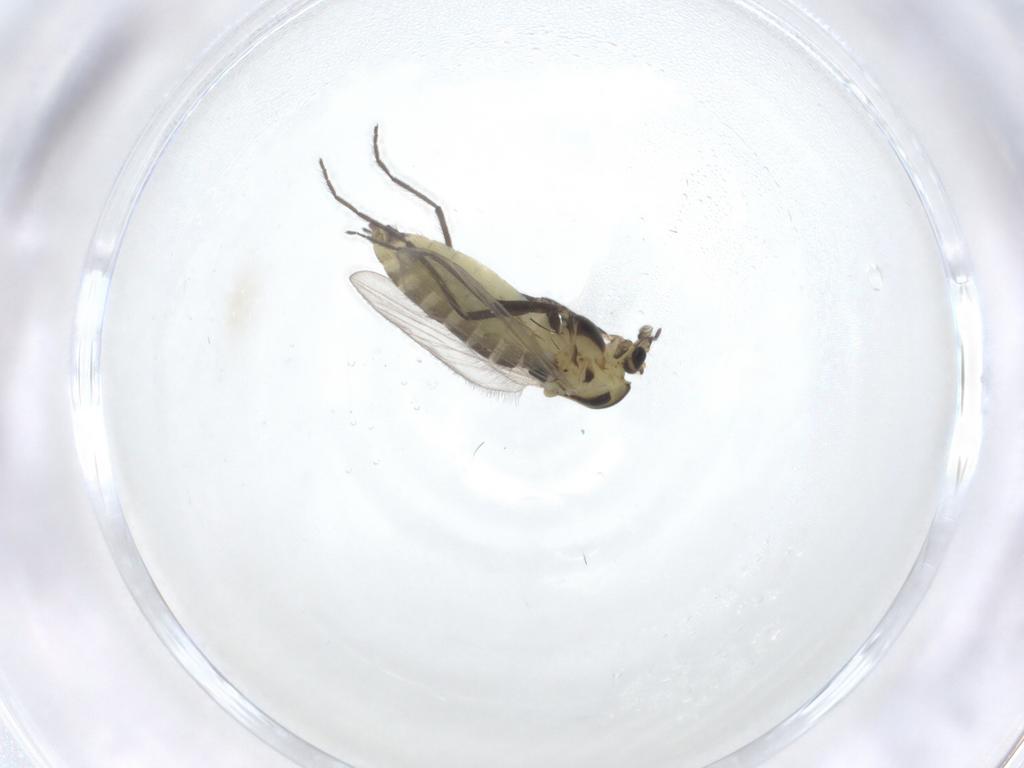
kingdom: Animalia
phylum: Arthropoda
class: Insecta
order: Diptera
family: Chironomidae
